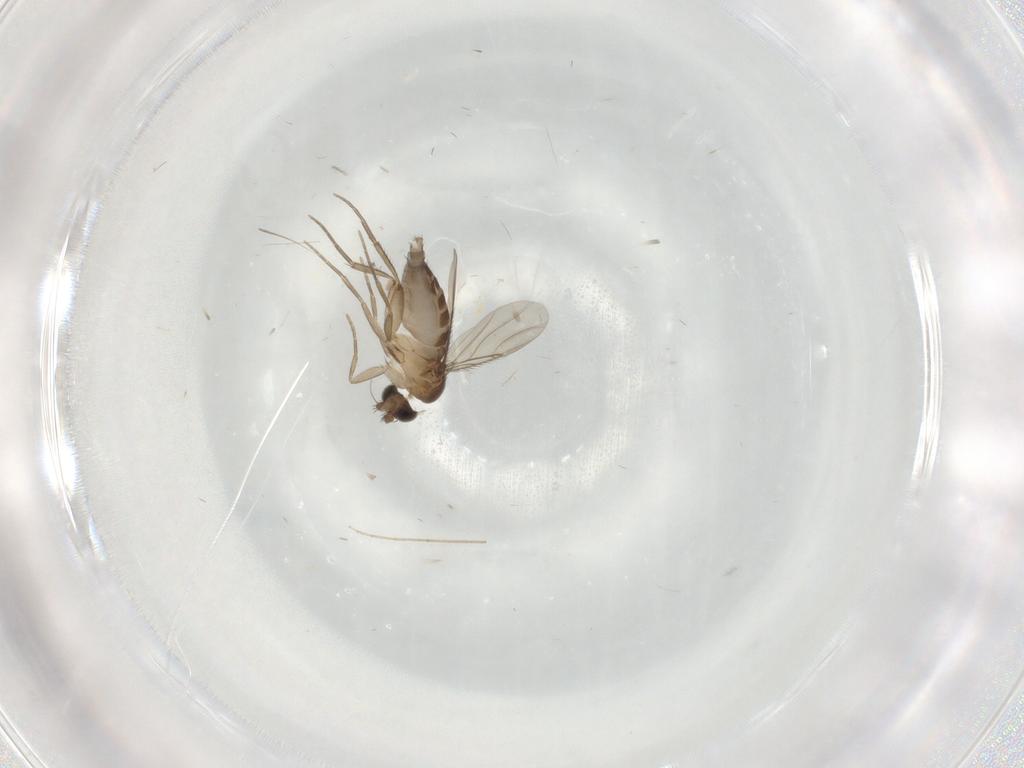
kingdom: Animalia
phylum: Arthropoda
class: Insecta
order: Diptera
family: Phoridae
